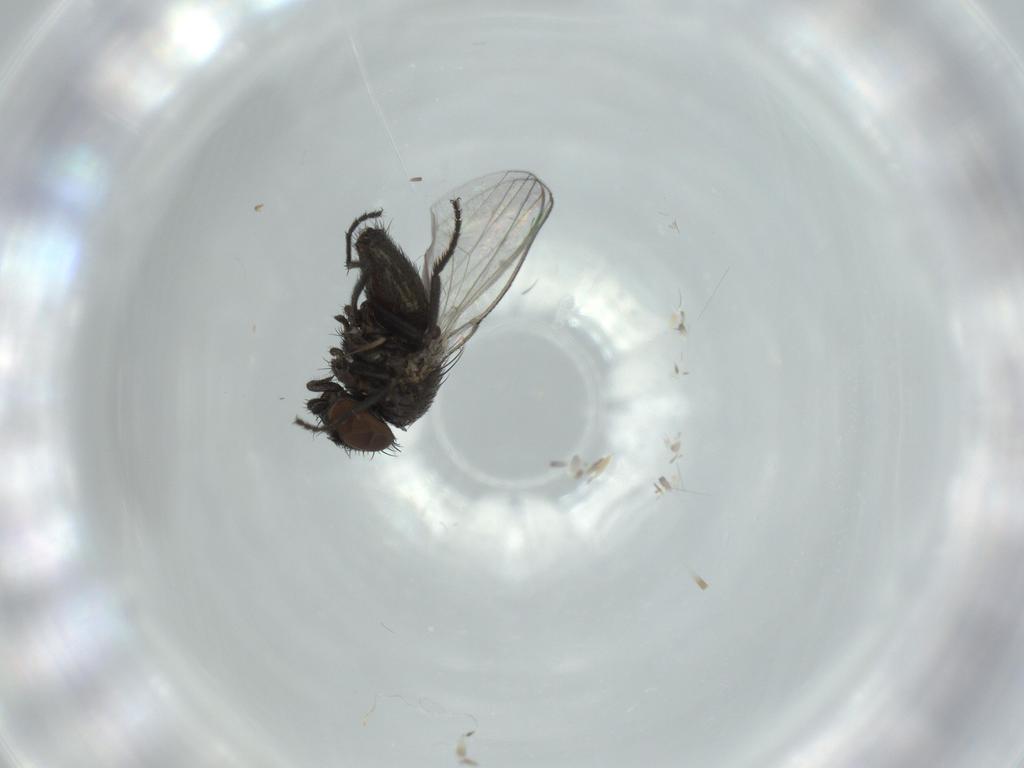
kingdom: Animalia
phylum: Arthropoda
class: Insecta
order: Diptera
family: Milichiidae
